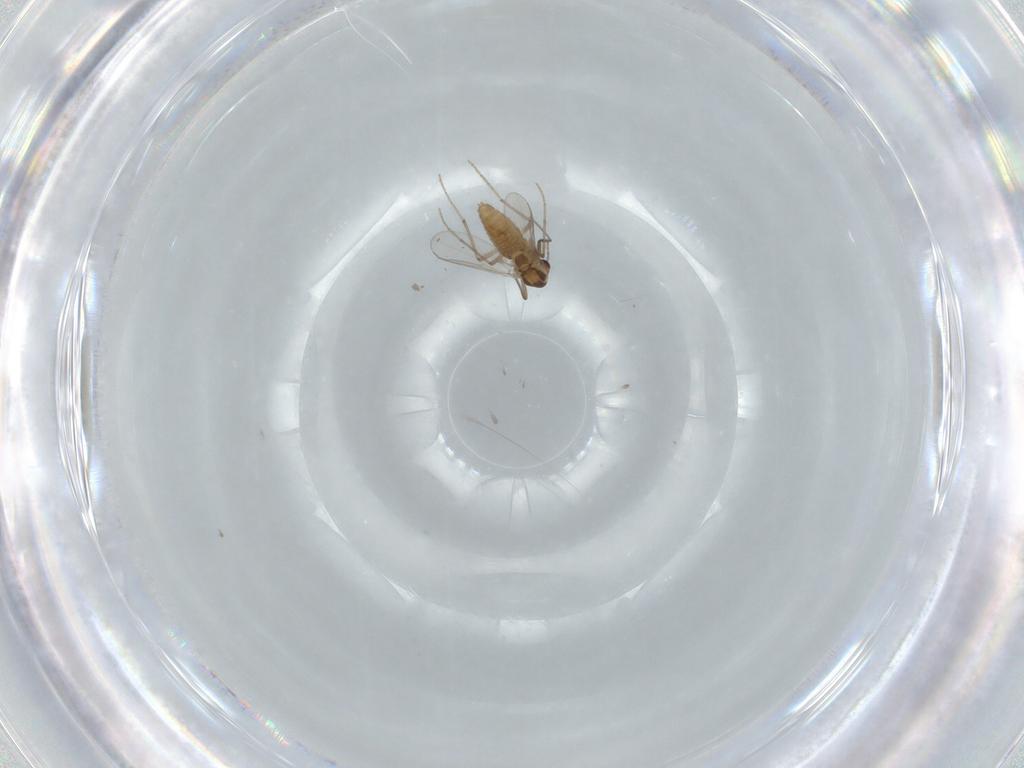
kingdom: Animalia
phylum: Arthropoda
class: Insecta
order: Diptera
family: Chironomidae
